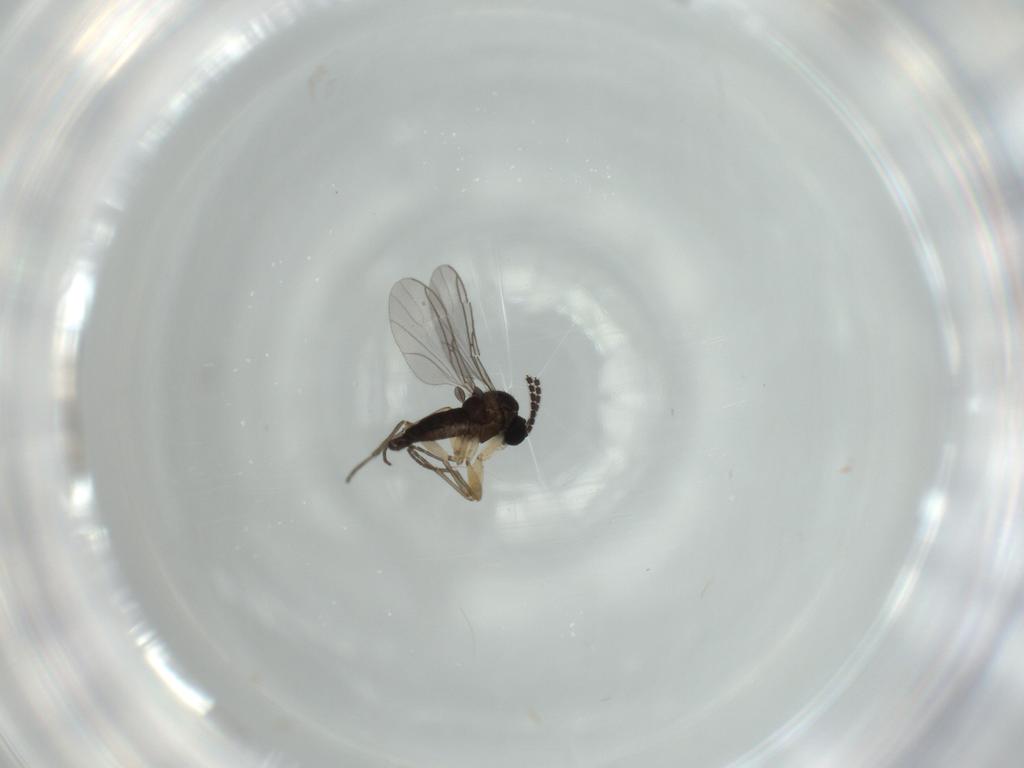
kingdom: Animalia
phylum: Arthropoda
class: Insecta
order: Diptera
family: Sciaridae
